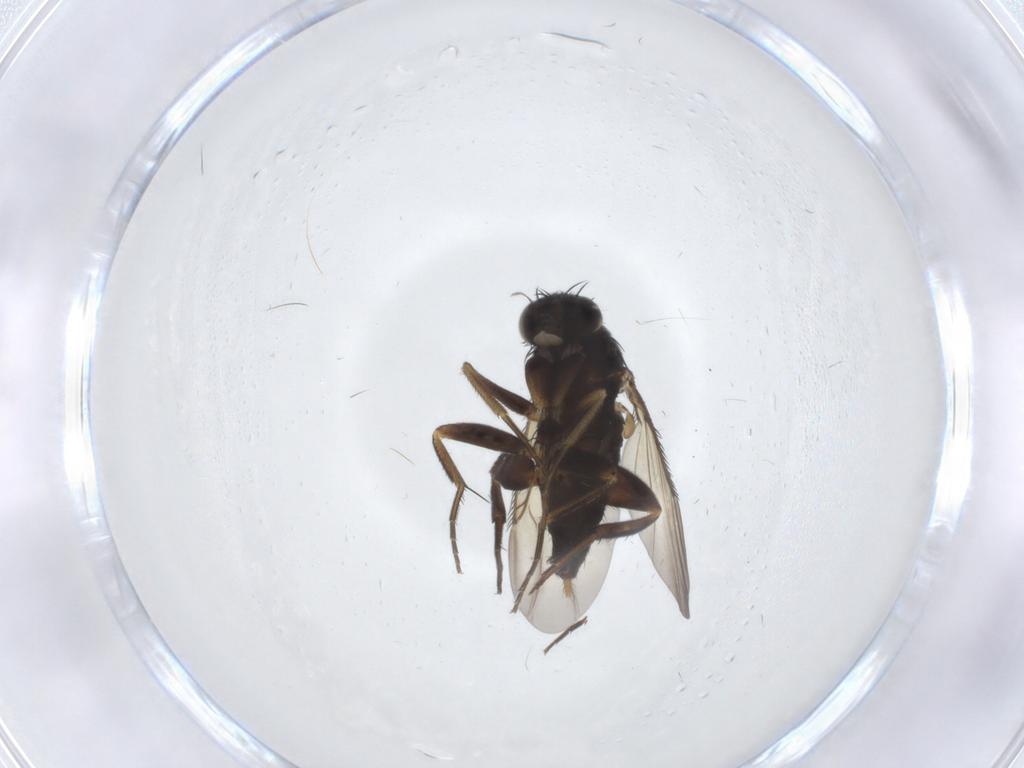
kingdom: Animalia
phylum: Arthropoda
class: Insecta
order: Diptera
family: Phoridae
